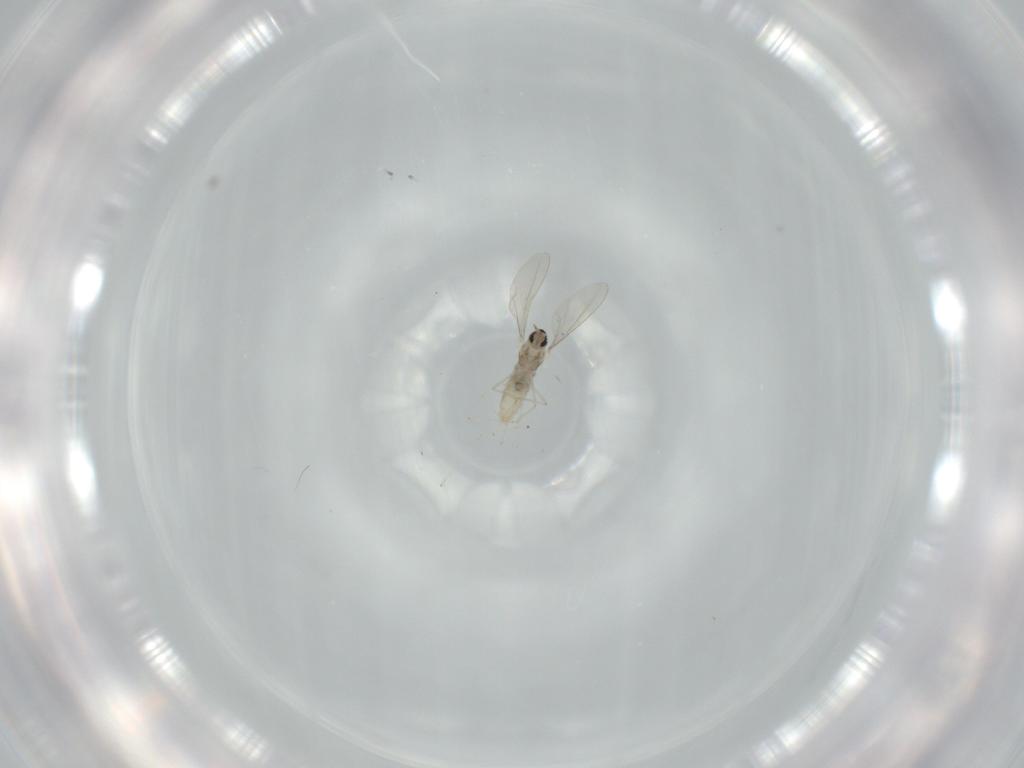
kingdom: Animalia
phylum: Arthropoda
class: Insecta
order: Diptera
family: Cecidomyiidae
